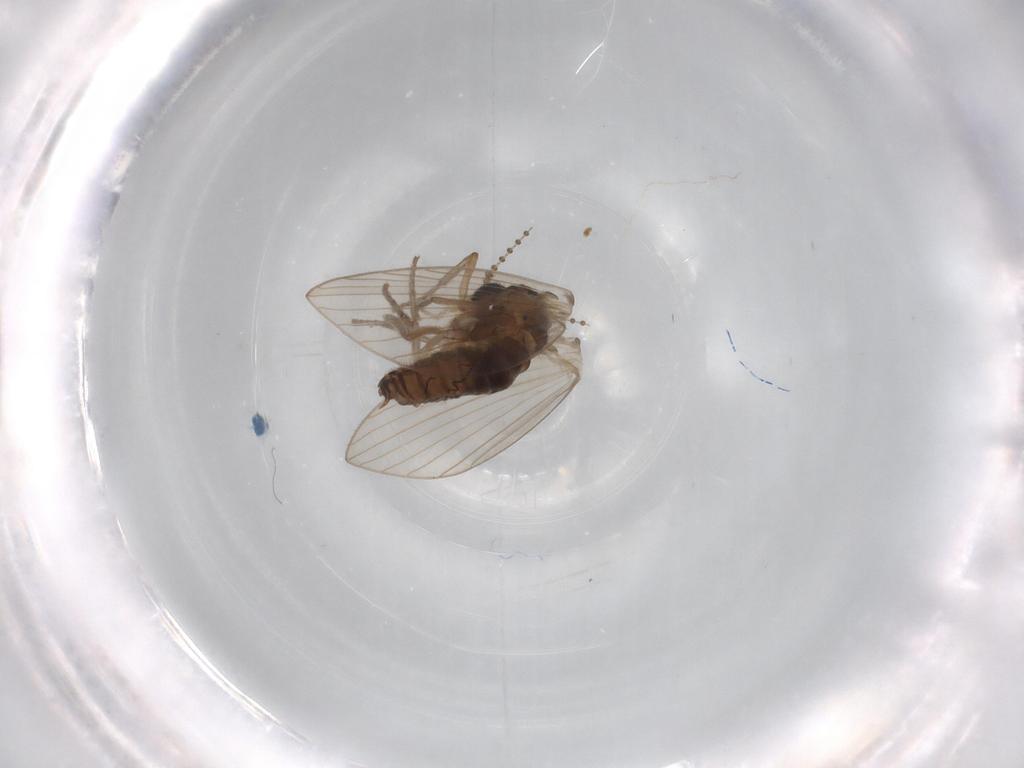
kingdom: Animalia
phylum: Arthropoda
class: Insecta
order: Diptera
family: Psychodidae
